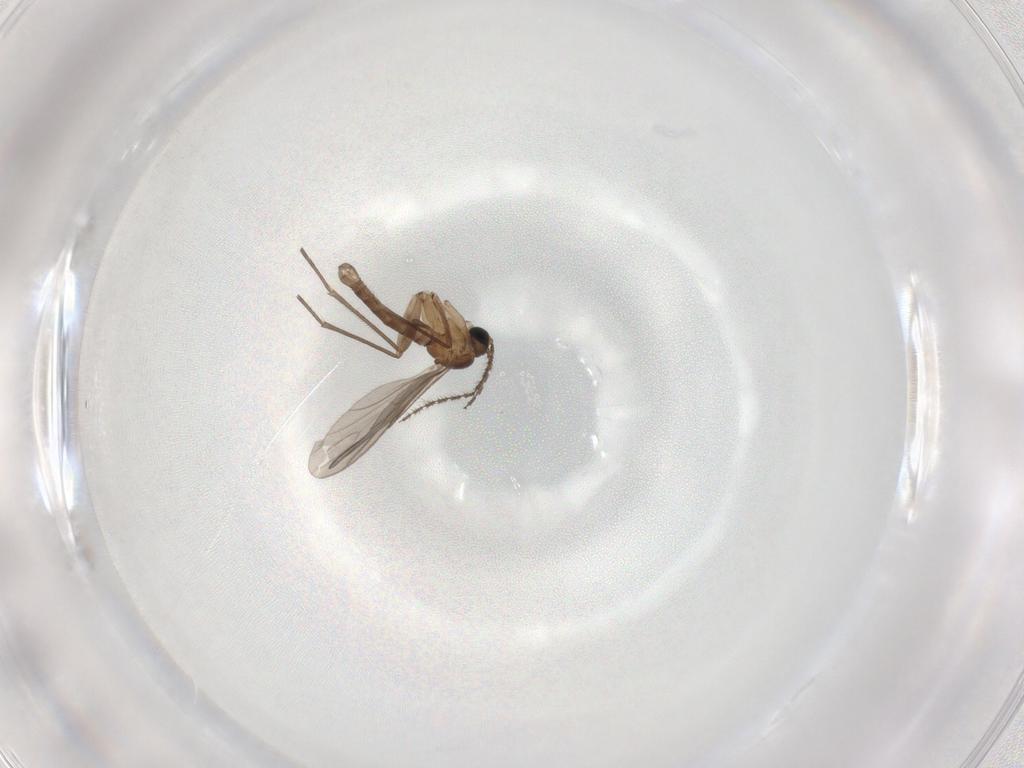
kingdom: Animalia
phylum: Arthropoda
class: Insecta
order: Diptera
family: Sciaridae
